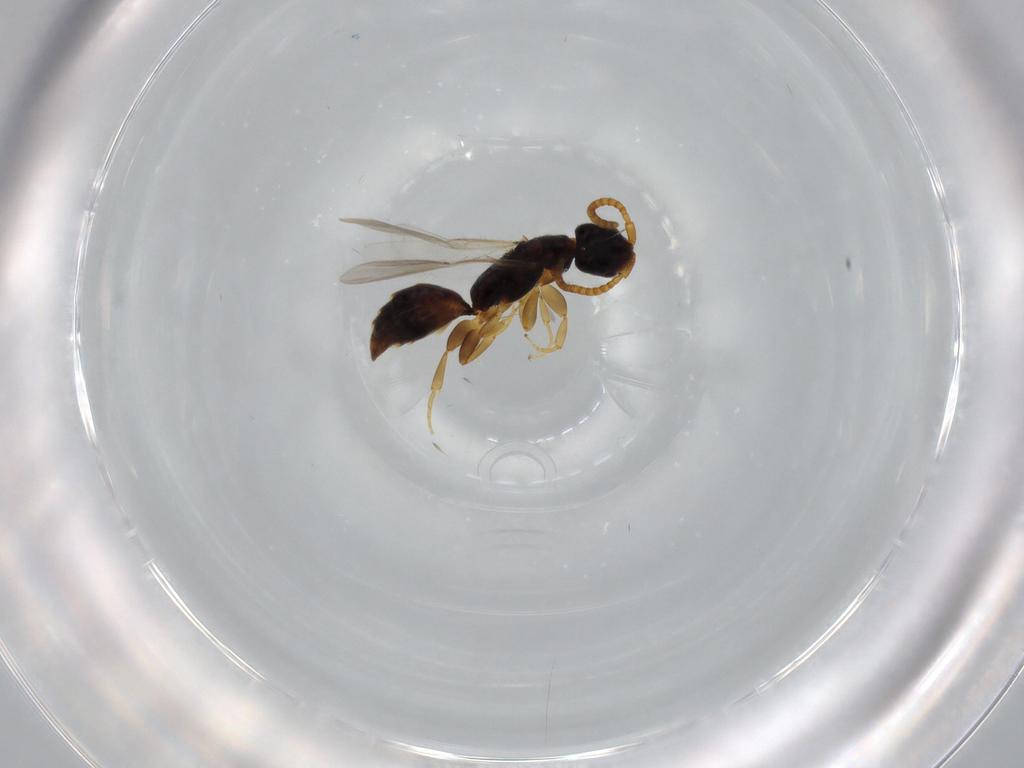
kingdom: Animalia
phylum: Arthropoda
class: Insecta
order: Hymenoptera
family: Bethylidae
